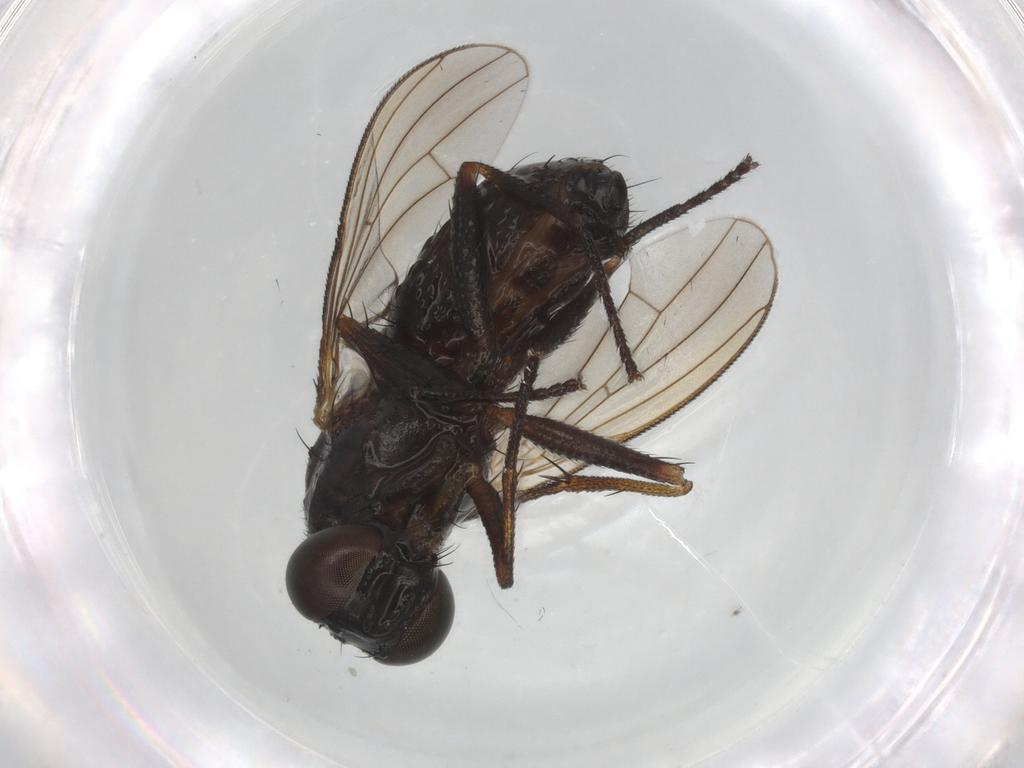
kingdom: Animalia
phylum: Arthropoda
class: Insecta
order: Diptera
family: Muscidae
